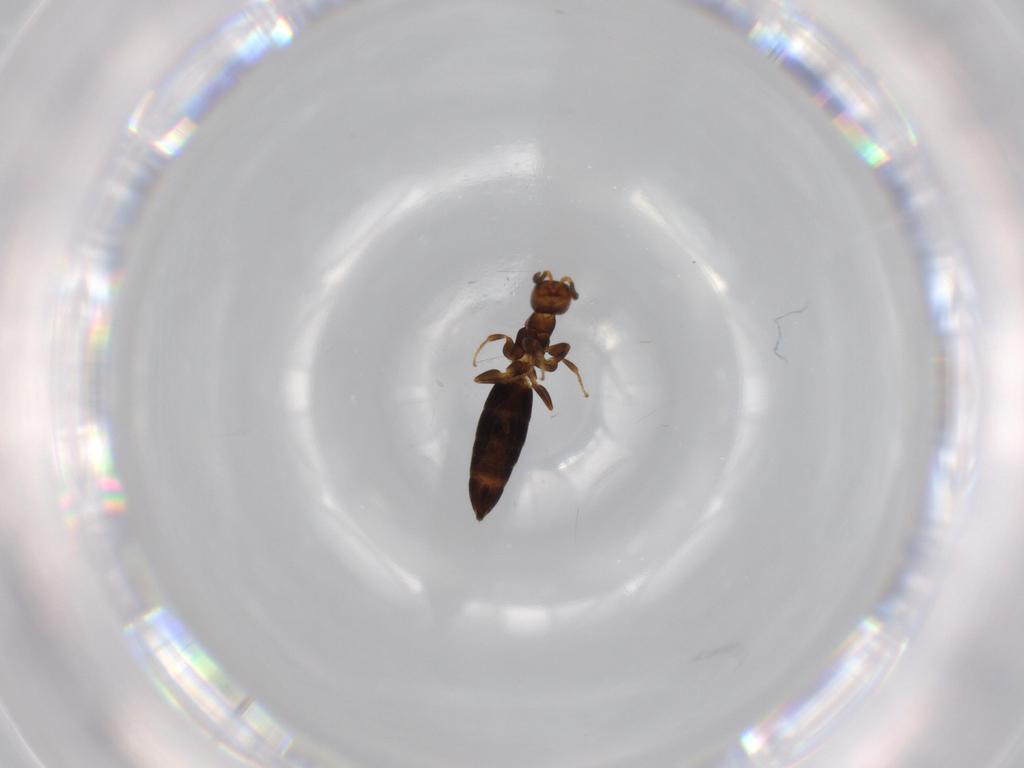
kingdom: Animalia
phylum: Arthropoda
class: Insecta
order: Hymenoptera
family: Bethylidae
